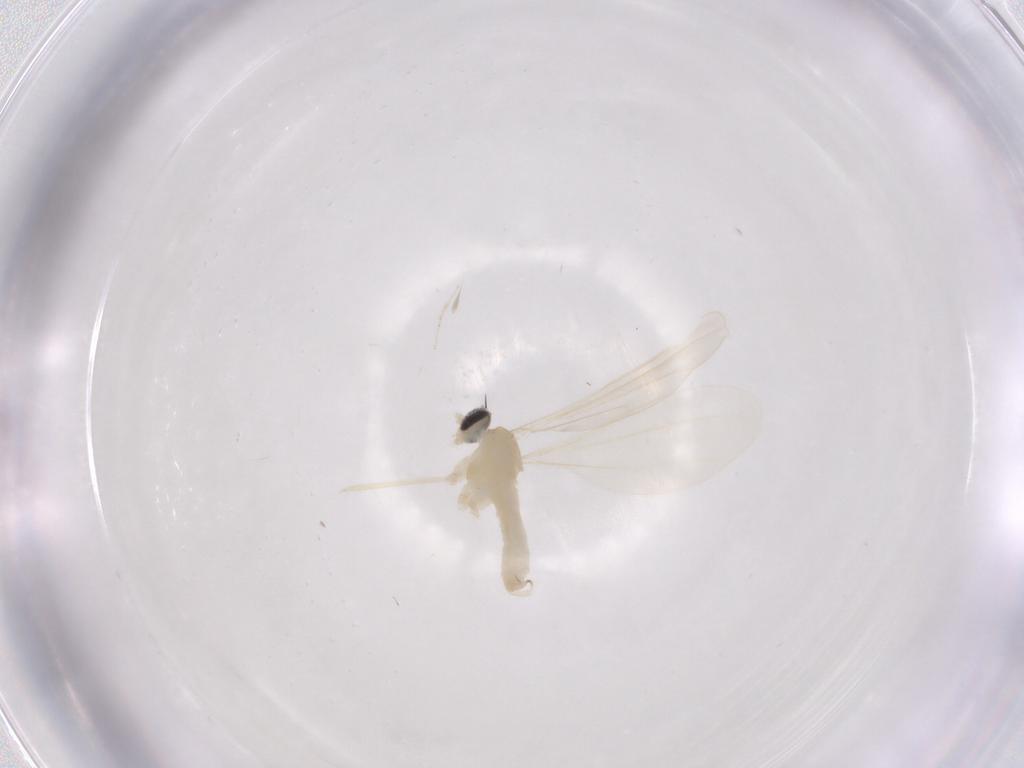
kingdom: Animalia
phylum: Arthropoda
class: Insecta
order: Diptera
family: Cecidomyiidae
